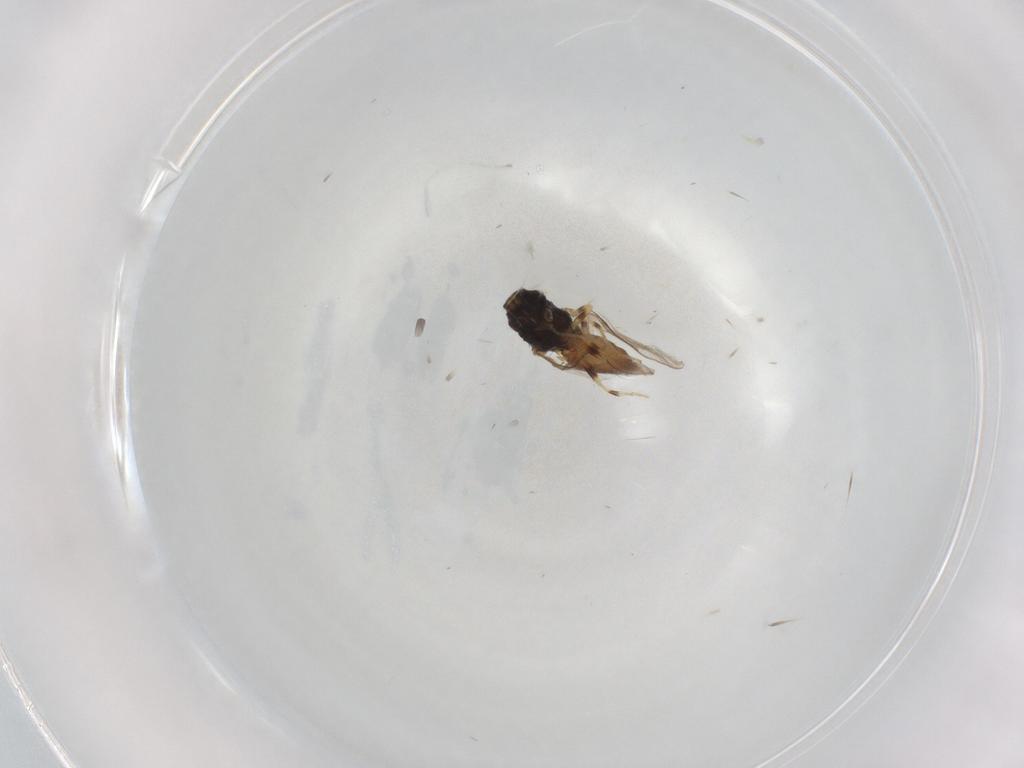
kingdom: Animalia
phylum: Arthropoda
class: Insecta
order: Diptera
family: Chloropidae
